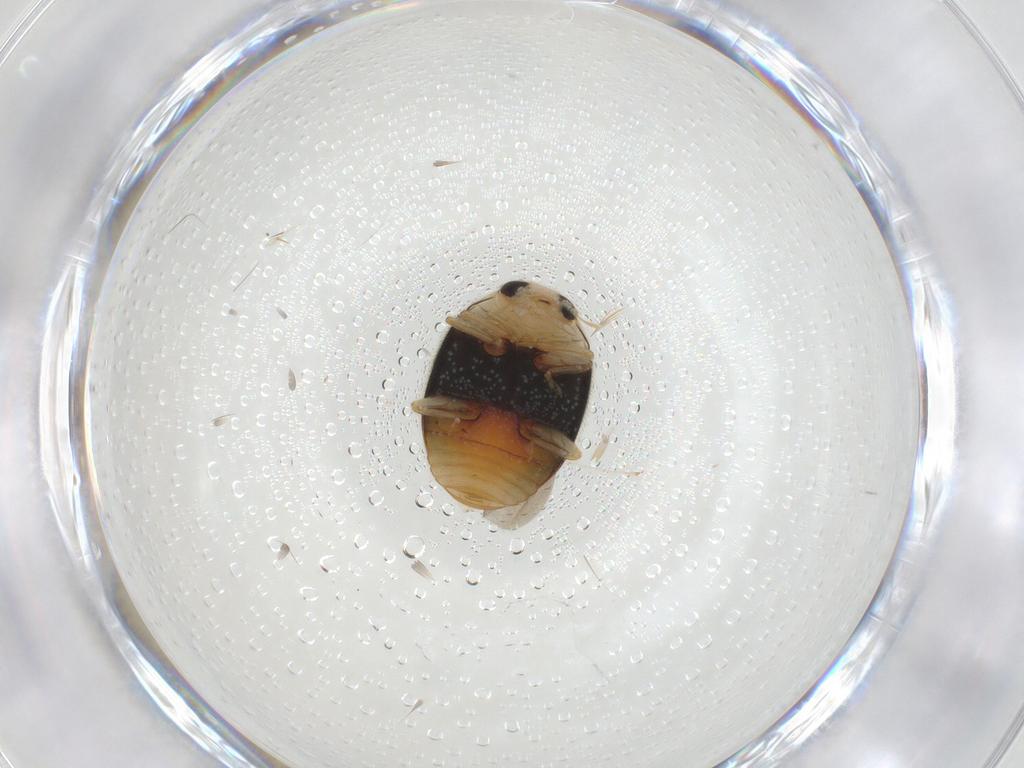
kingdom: Animalia
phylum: Arthropoda
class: Insecta
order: Coleoptera
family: Coccinellidae
